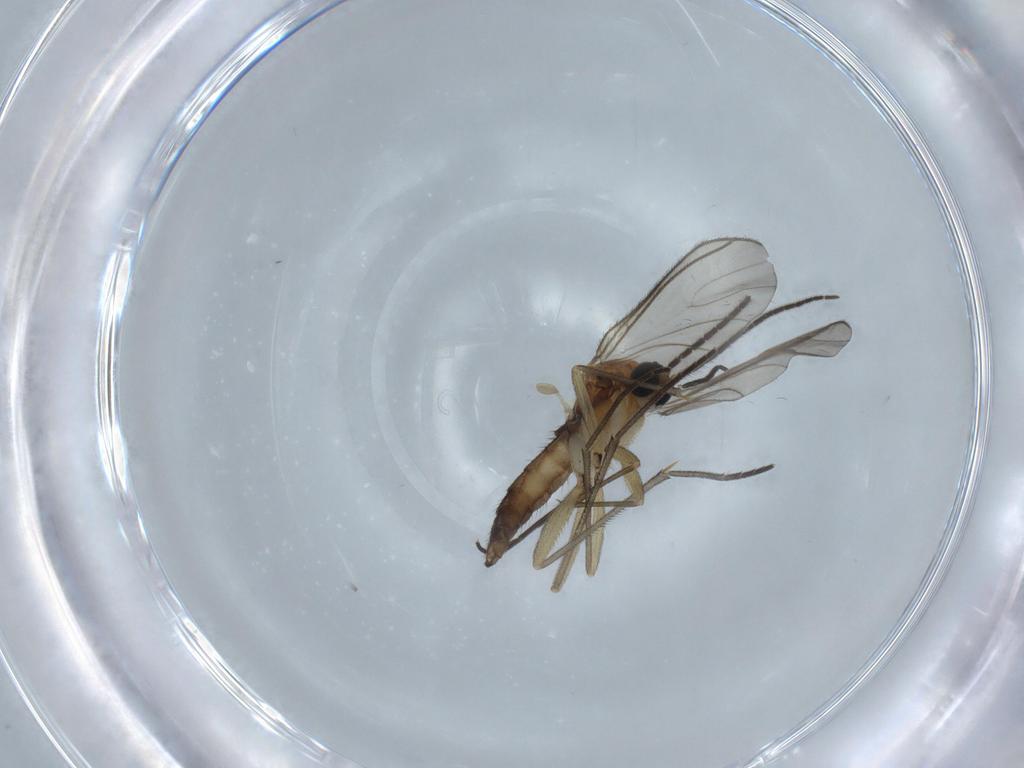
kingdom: Animalia
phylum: Arthropoda
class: Insecta
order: Diptera
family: Sciaridae
